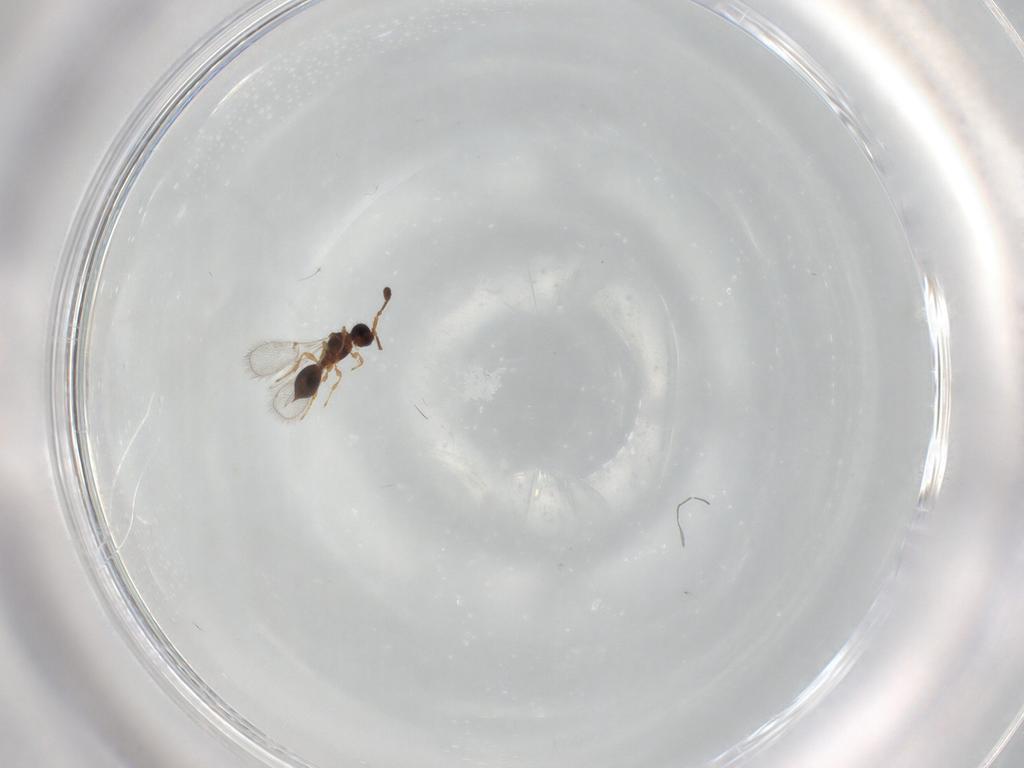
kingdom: Animalia
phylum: Arthropoda
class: Insecta
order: Hymenoptera
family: Diapriidae
